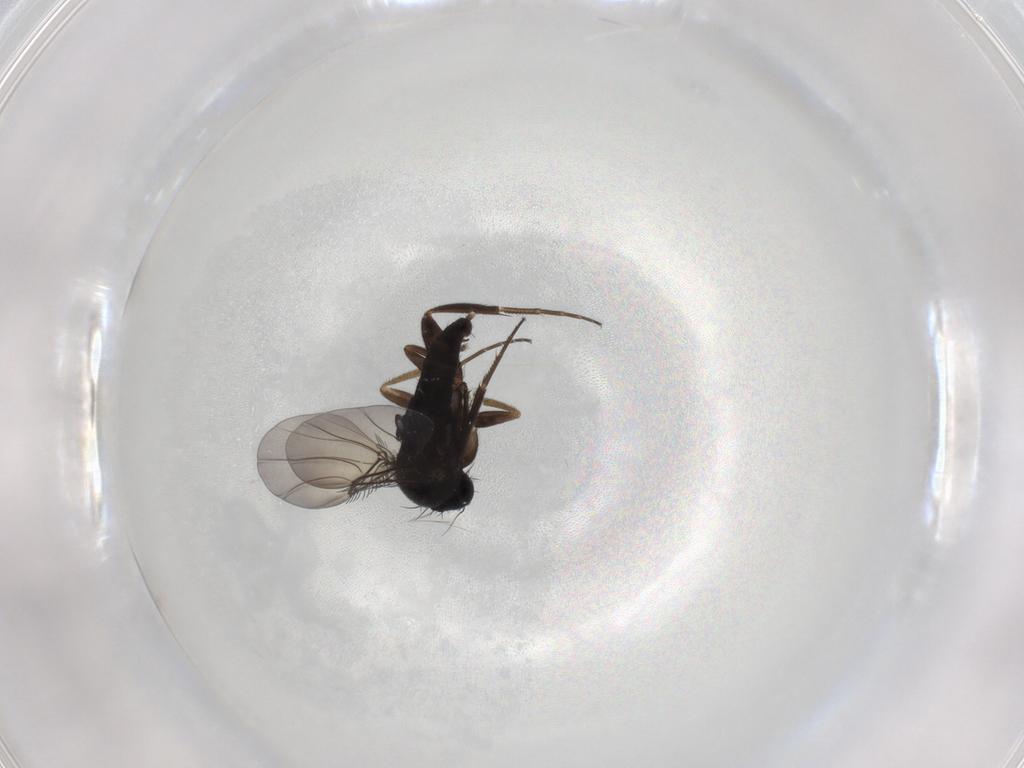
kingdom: Animalia
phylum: Arthropoda
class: Insecta
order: Diptera
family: Phoridae
